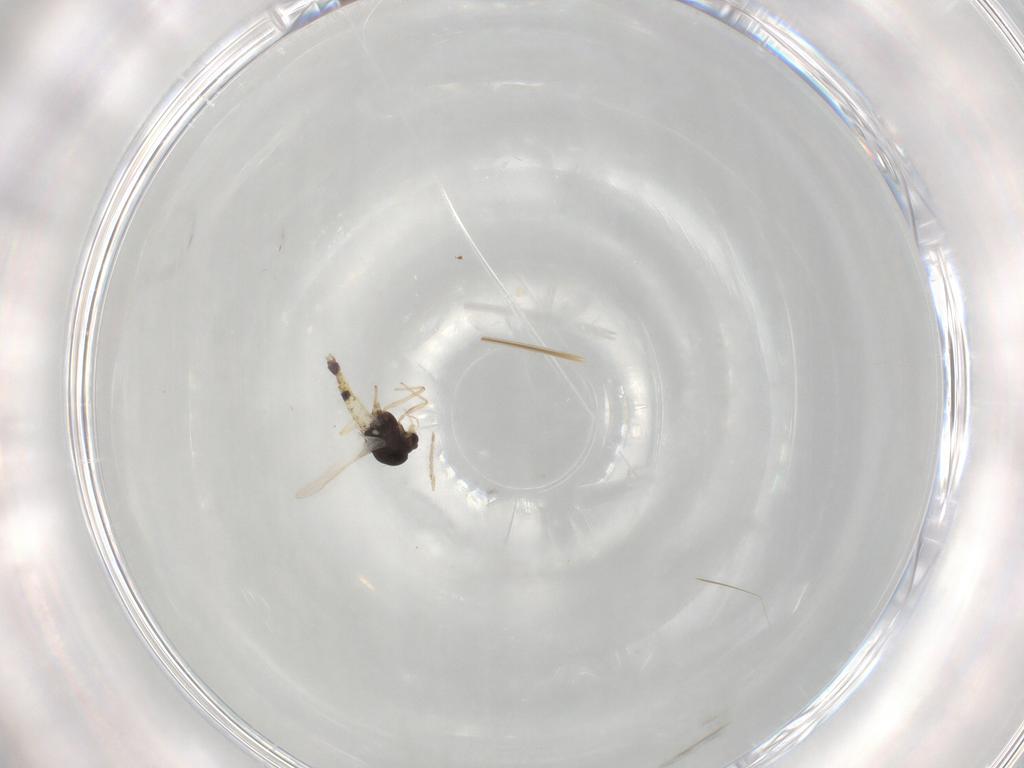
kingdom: Animalia
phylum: Arthropoda
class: Insecta
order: Diptera
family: Chironomidae
